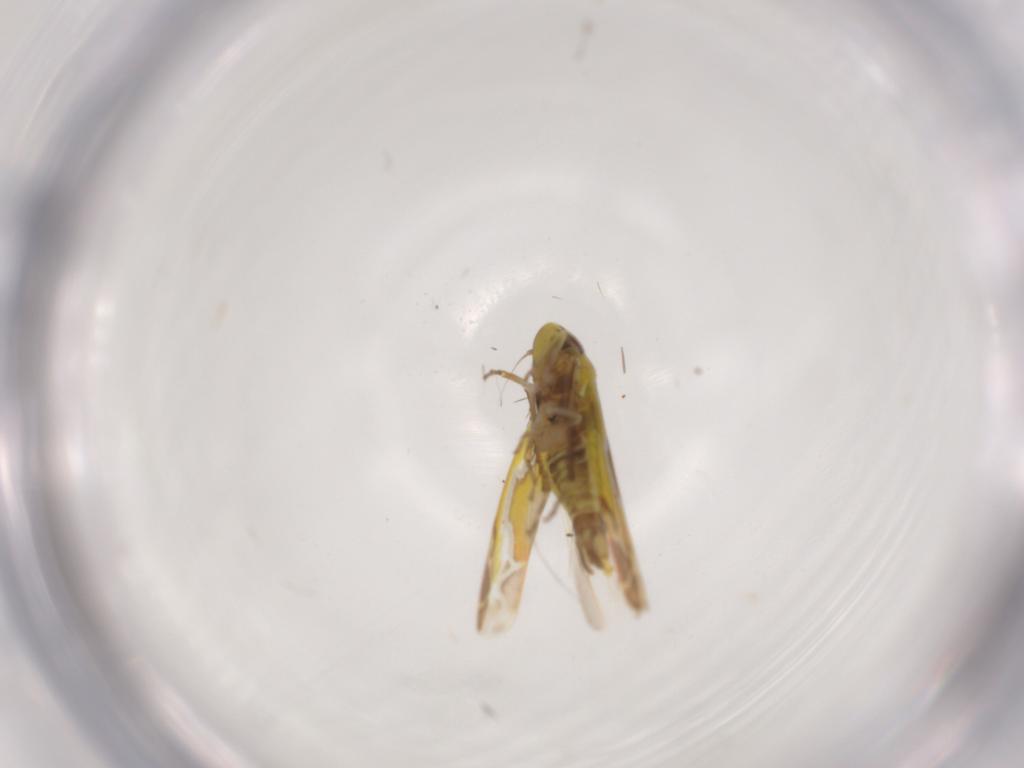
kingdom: Animalia
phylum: Arthropoda
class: Insecta
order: Hemiptera
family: Cicadellidae
